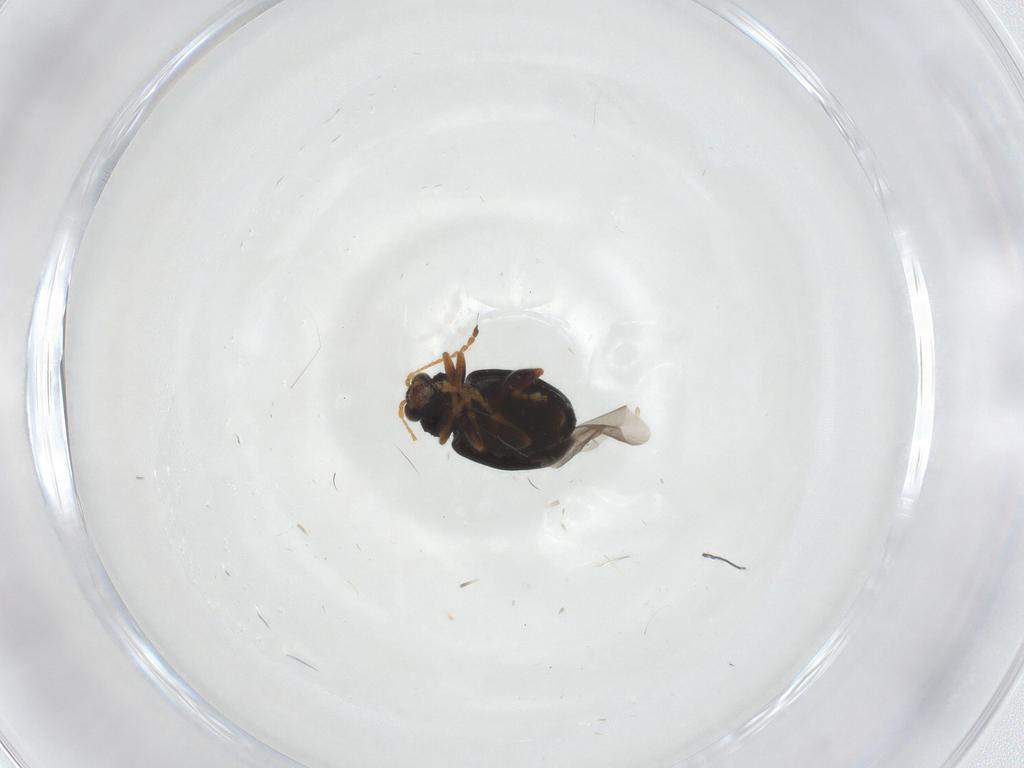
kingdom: Animalia
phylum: Arthropoda
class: Insecta
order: Coleoptera
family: Coccinellidae
